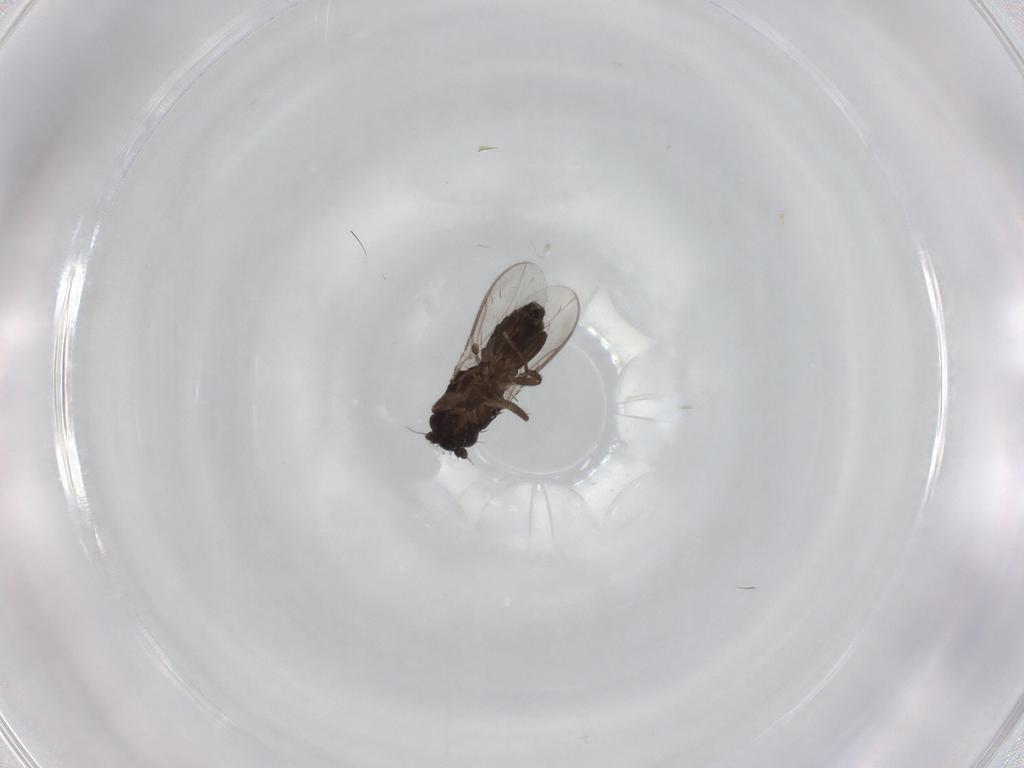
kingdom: Animalia
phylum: Arthropoda
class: Insecta
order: Diptera
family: Sphaeroceridae
